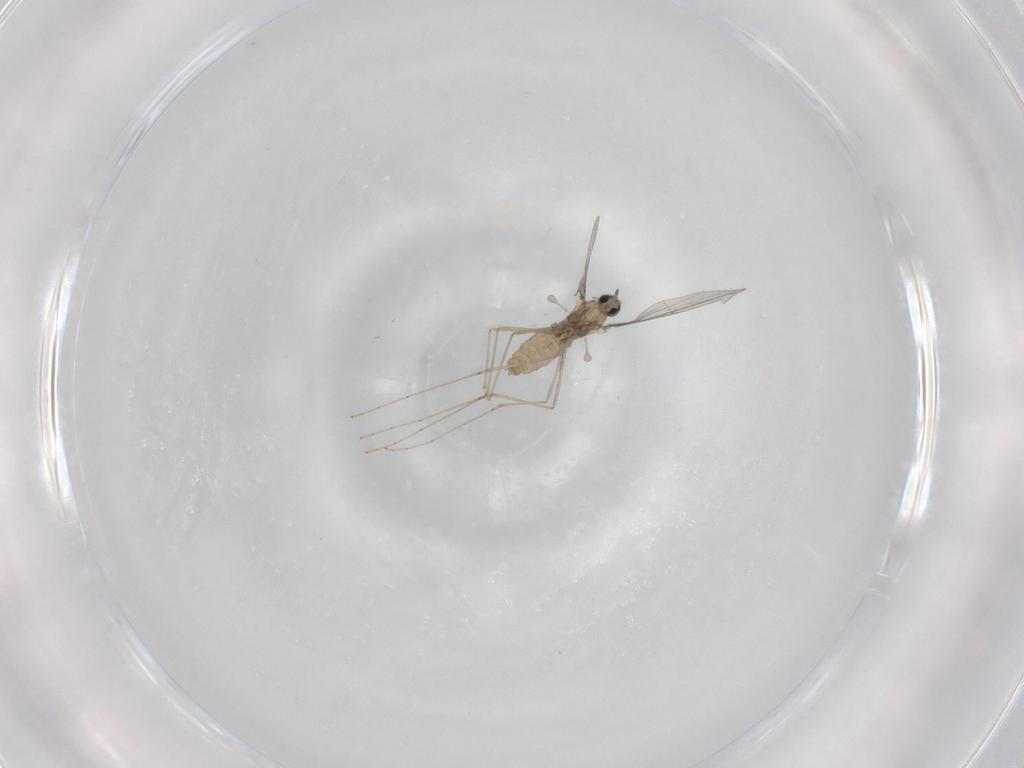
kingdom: Animalia
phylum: Arthropoda
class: Insecta
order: Diptera
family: Cecidomyiidae
